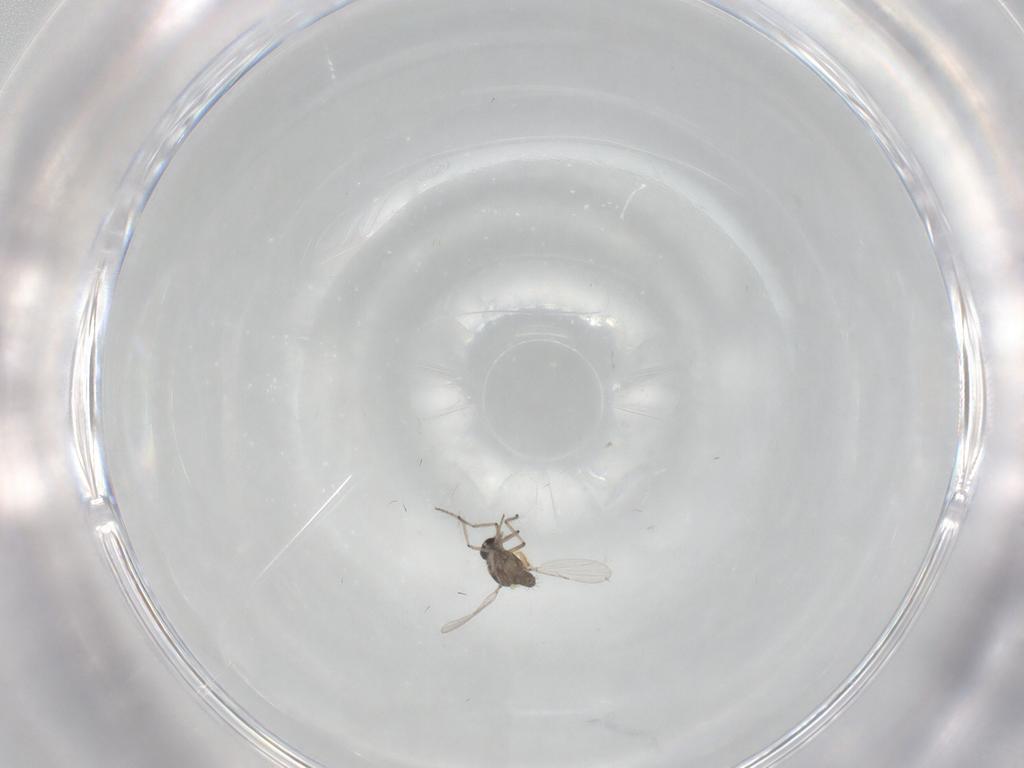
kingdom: Animalia
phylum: Arthropoda
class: Insecta
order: Diptera
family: Ceratopogonidae
